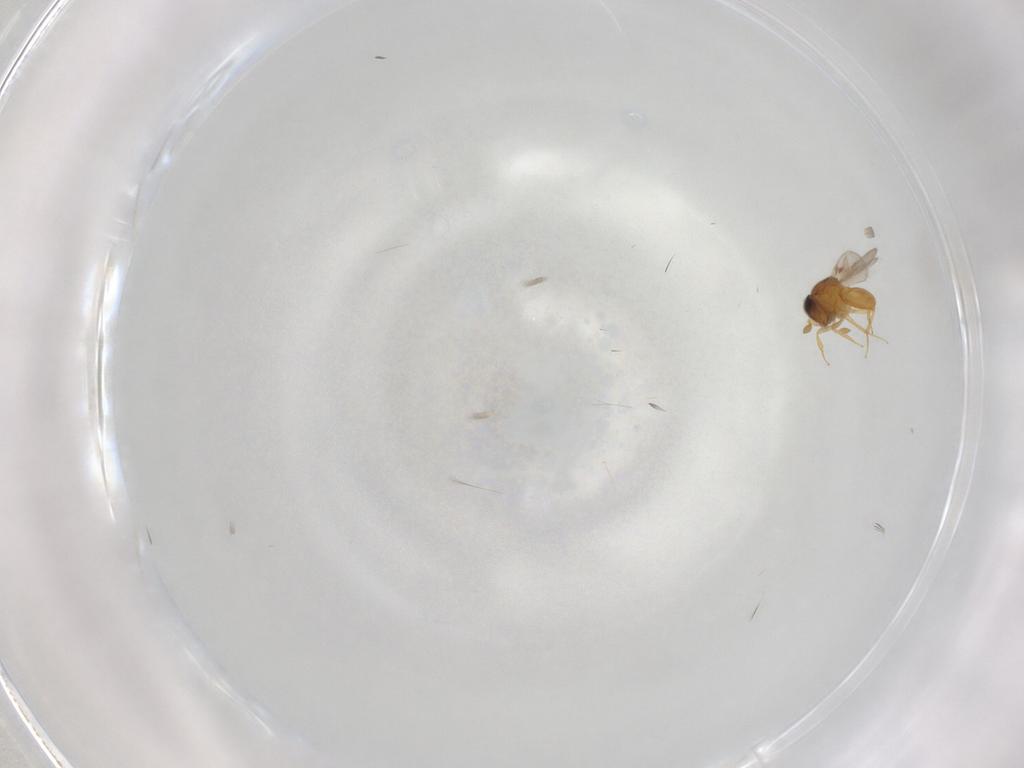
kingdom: Animalia
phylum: Arthropoda
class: Insecta
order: Hymenoptera
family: Scelionidae
